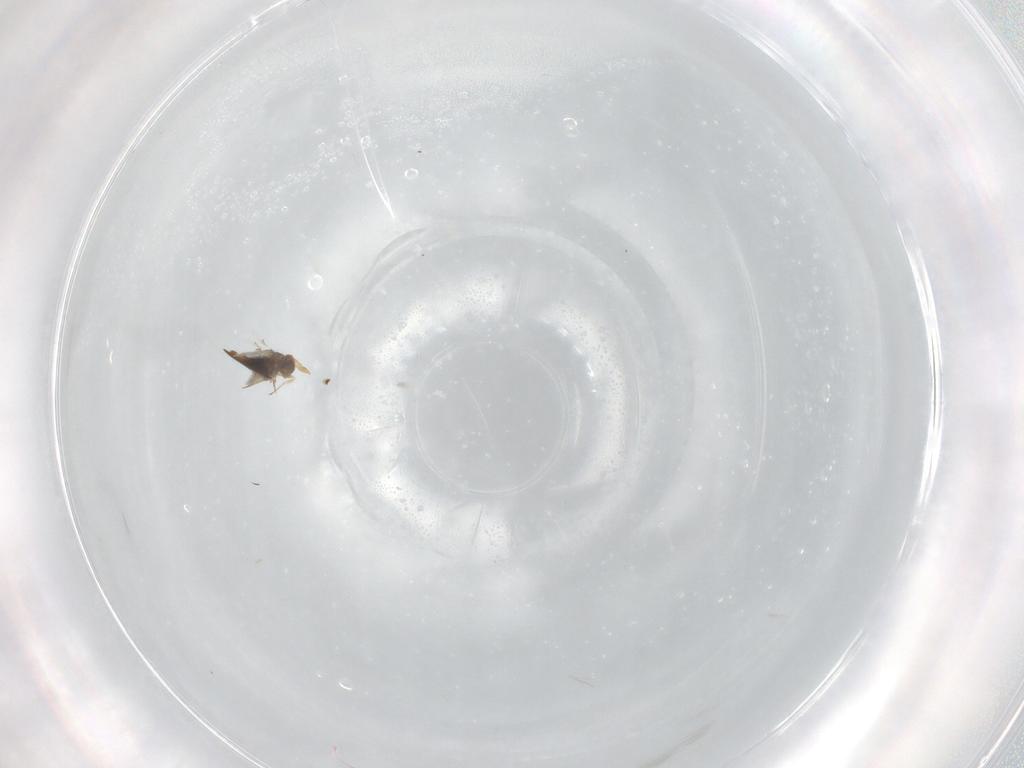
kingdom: Animalia
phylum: Arthropoda
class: Insecta
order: Hymenoptera
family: Trichogrammatidae
